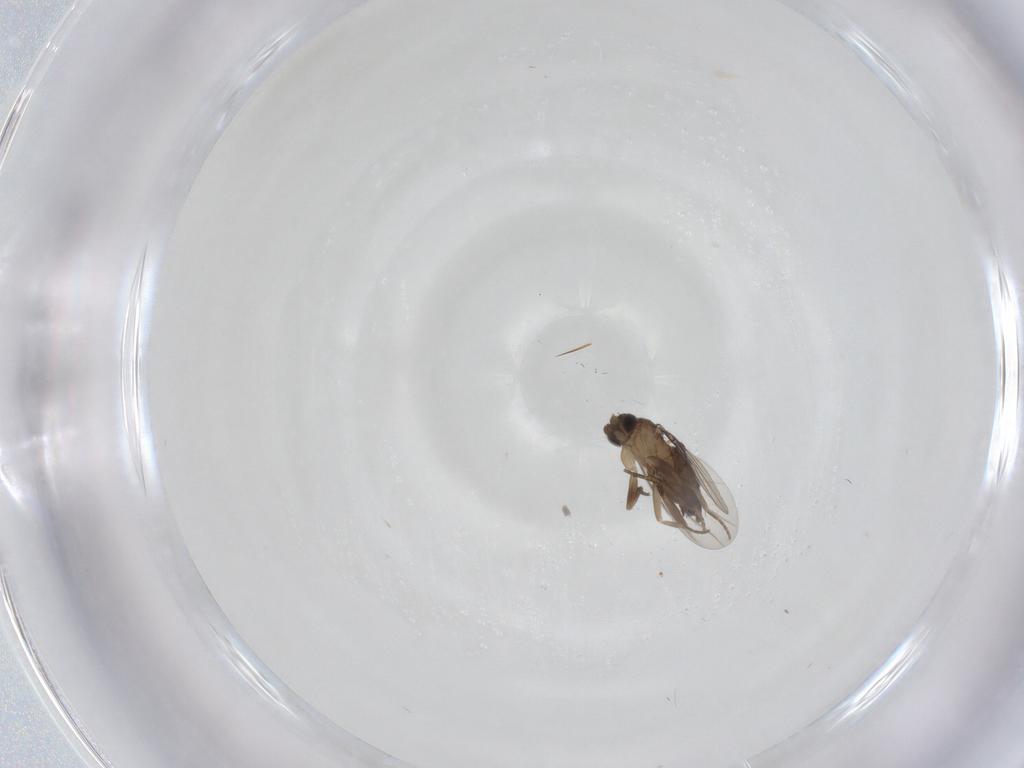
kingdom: Animalia
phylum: Arthropoda
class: Insecta
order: Diptera
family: Phoridae
